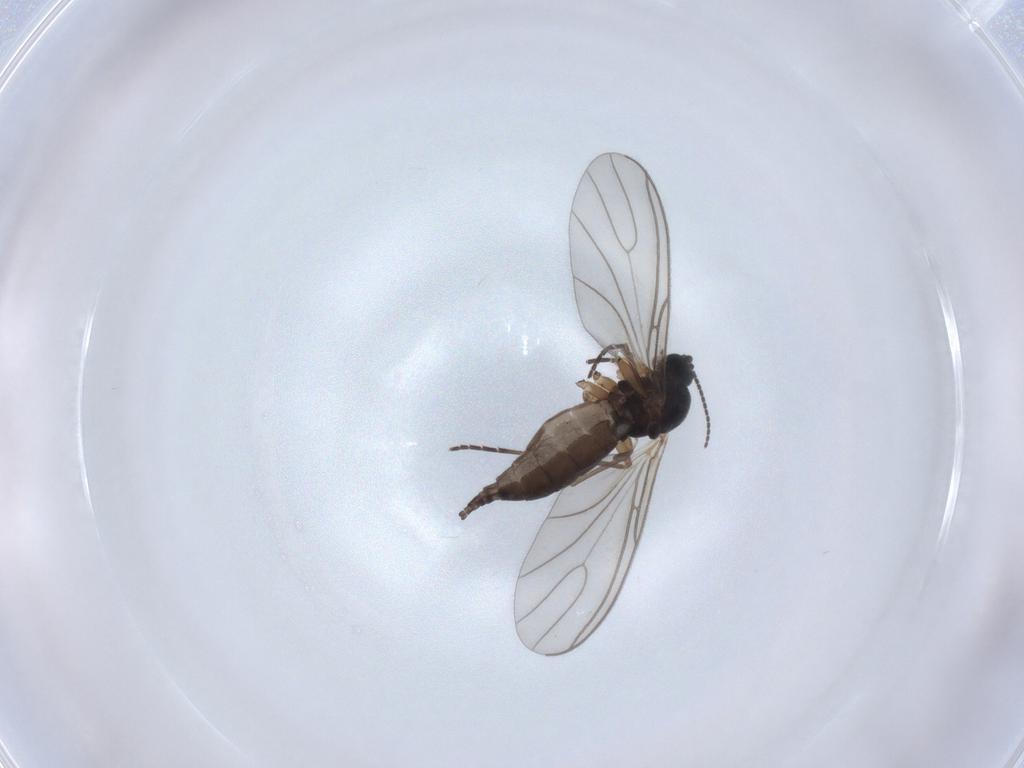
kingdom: Animalia
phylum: Arthropoda
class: Insecta
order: Diptera
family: Sciaridae
